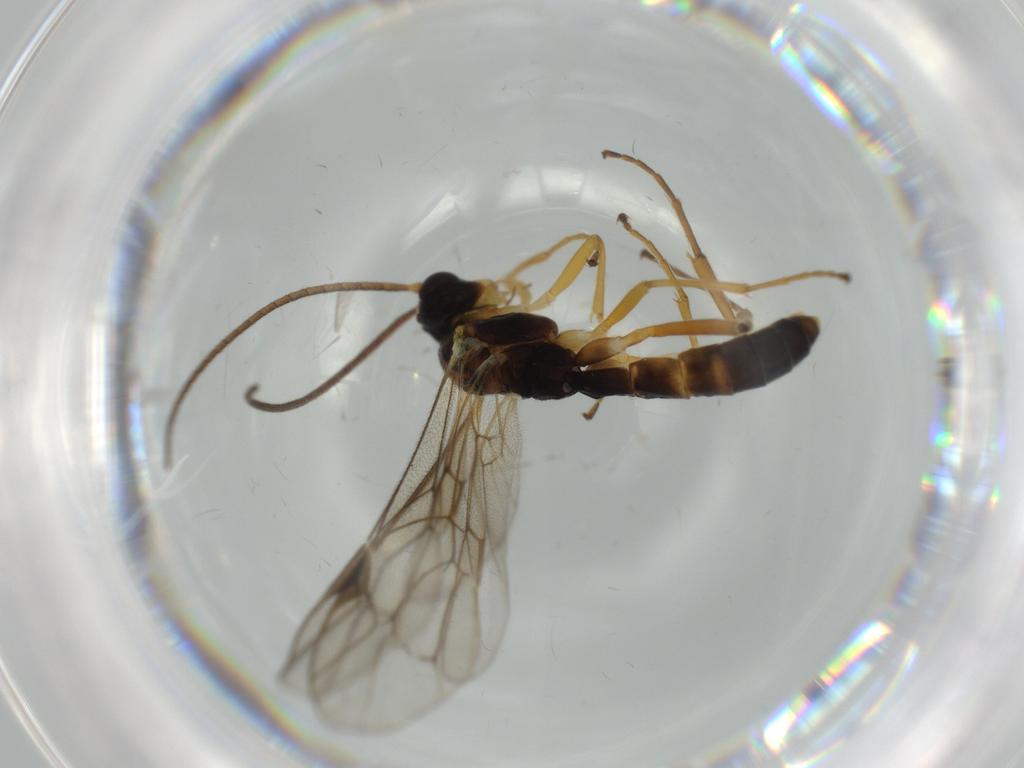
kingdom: Animalia
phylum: Arthropoda
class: Insecta
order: Hymenoptera
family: Ichneumonidae
